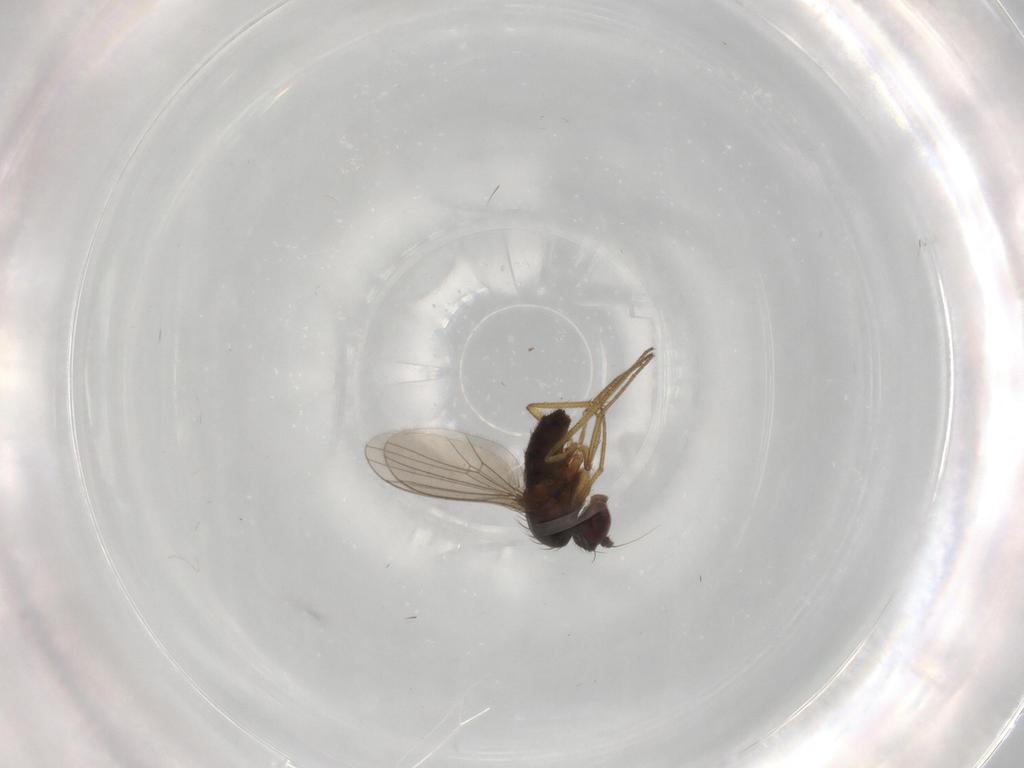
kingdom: Animalia
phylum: Arthropoda
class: Insecta
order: Diptera
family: Dolichopodidae
